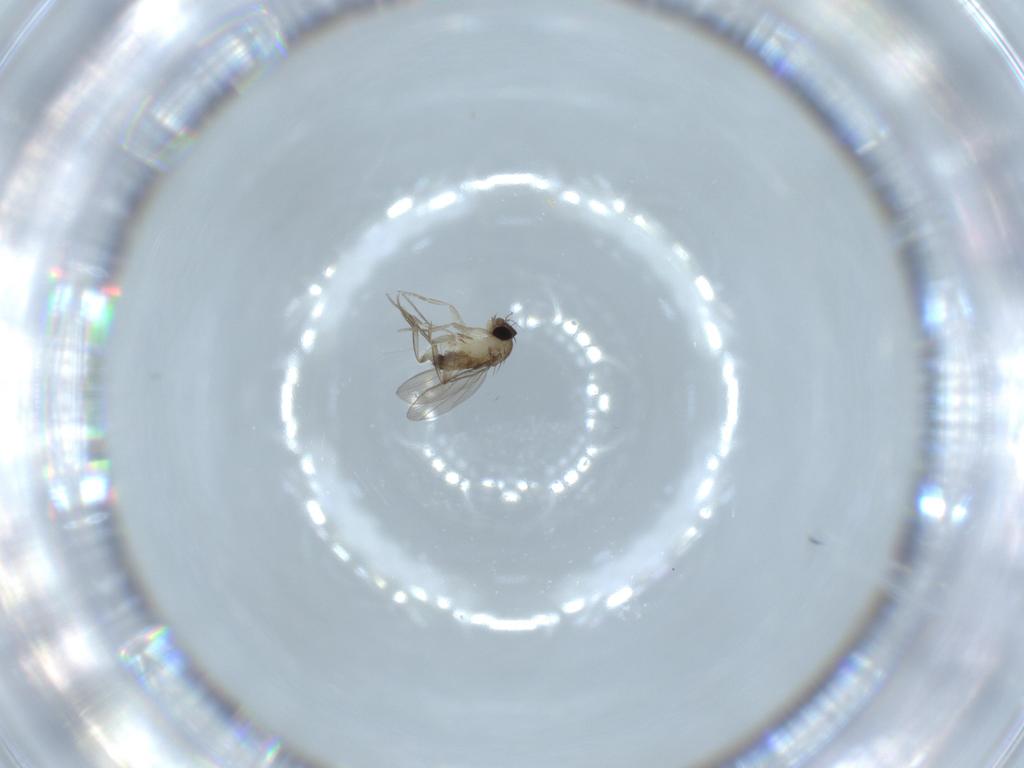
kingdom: Animalia
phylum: Arthropoda
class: Insecta
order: Diptera
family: Phoridae
